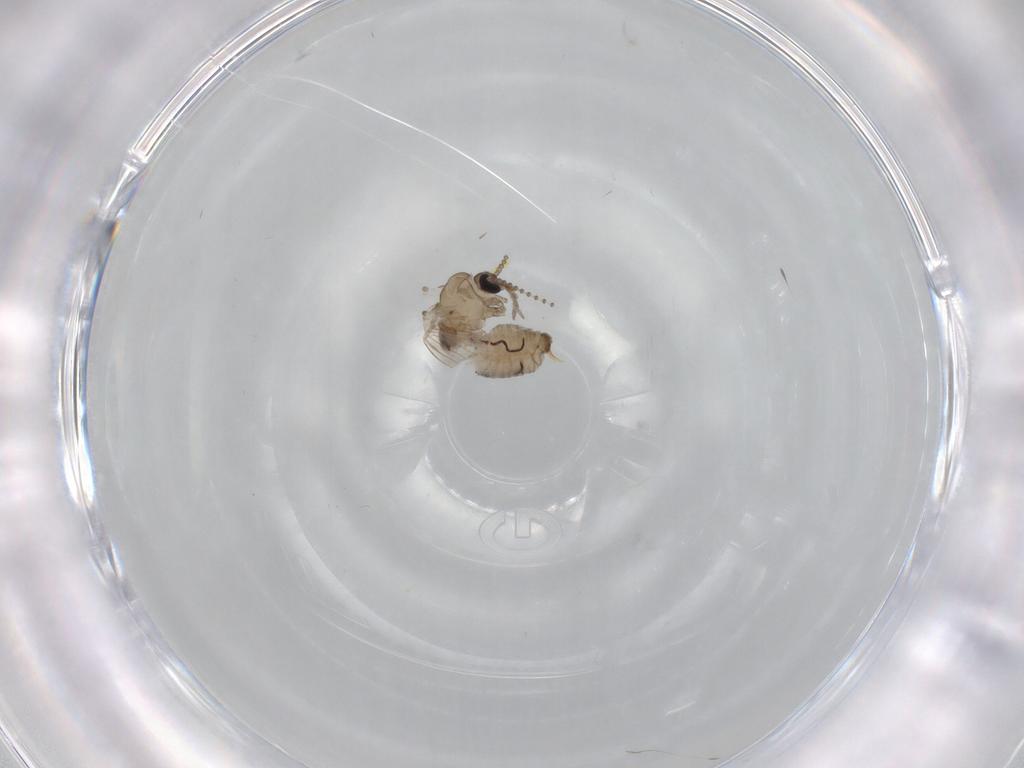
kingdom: Animalia
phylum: Arthropoda
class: Insecta
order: Diptera
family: Psychodidae
